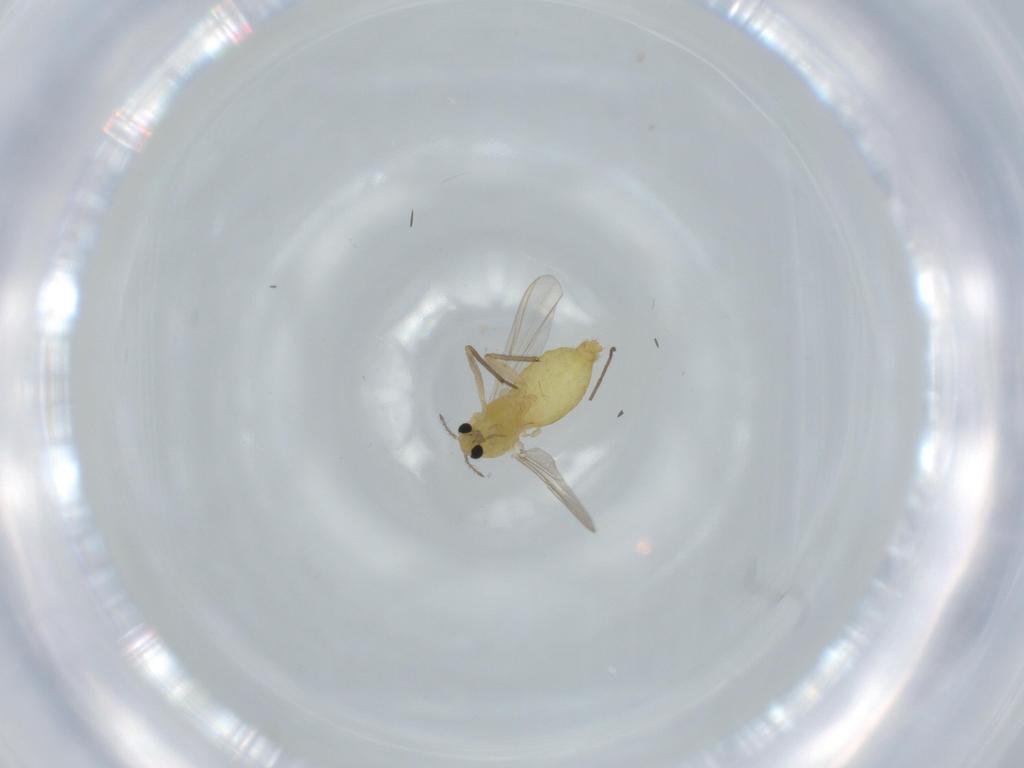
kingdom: Animalia
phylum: Arthropoda
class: Insecta
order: Diptera
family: Chironomidae
